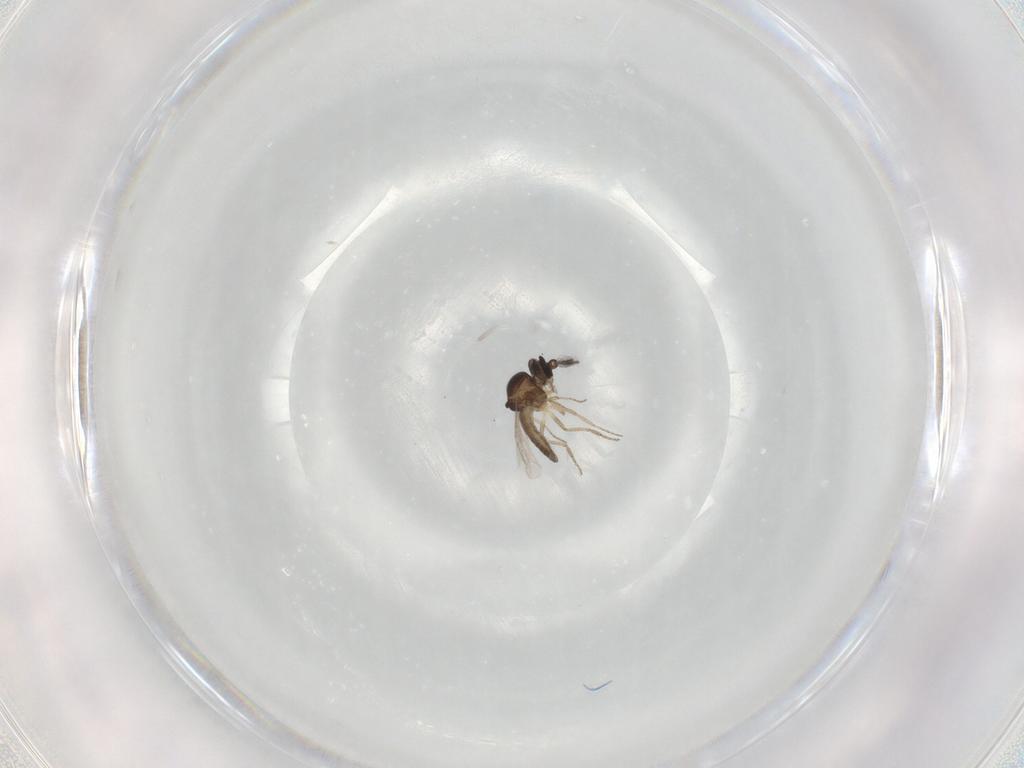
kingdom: Animalia
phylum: Arthropoda
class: Insecta
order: Diptera
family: Ceratopogonidae
